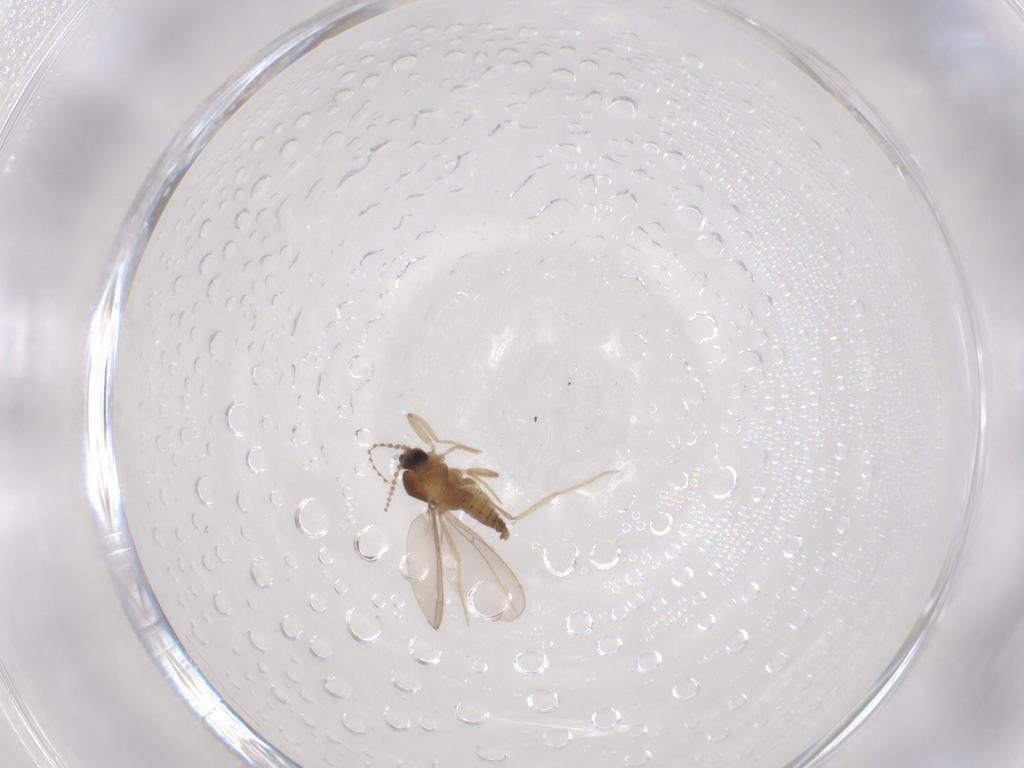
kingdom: Animalia
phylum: Arthropoda
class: Insecta
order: Diptera
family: Cecidomyiidae
